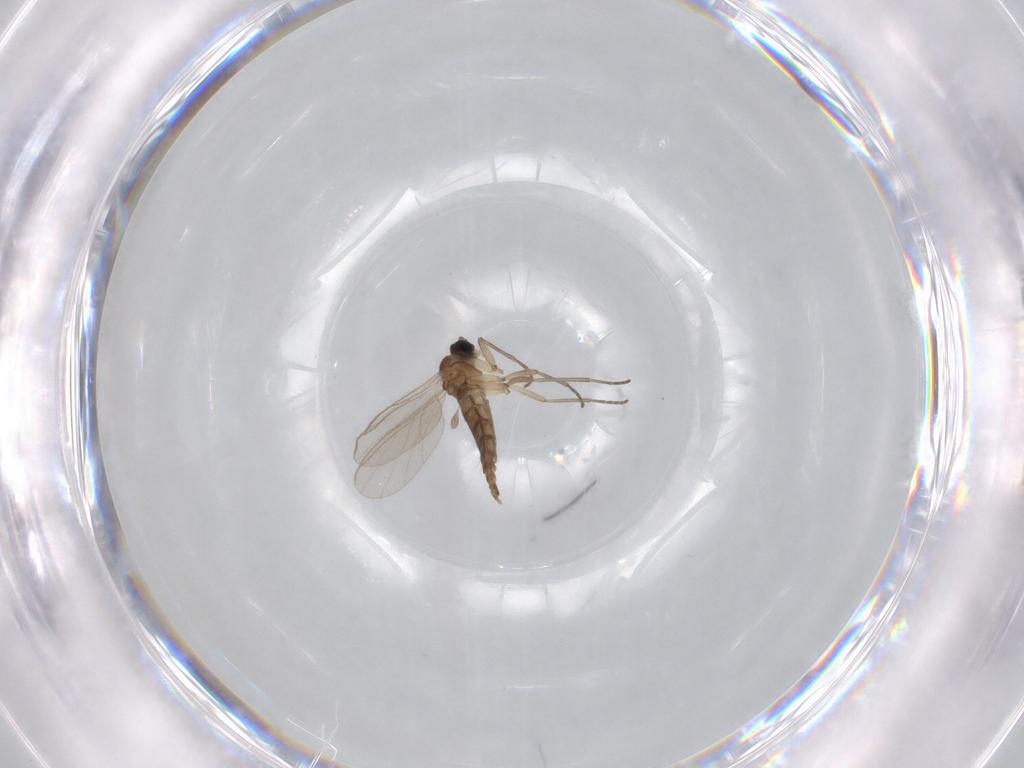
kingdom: Animalia
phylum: Arthropoda
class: Insecta
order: Diptera
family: Sciaridae
